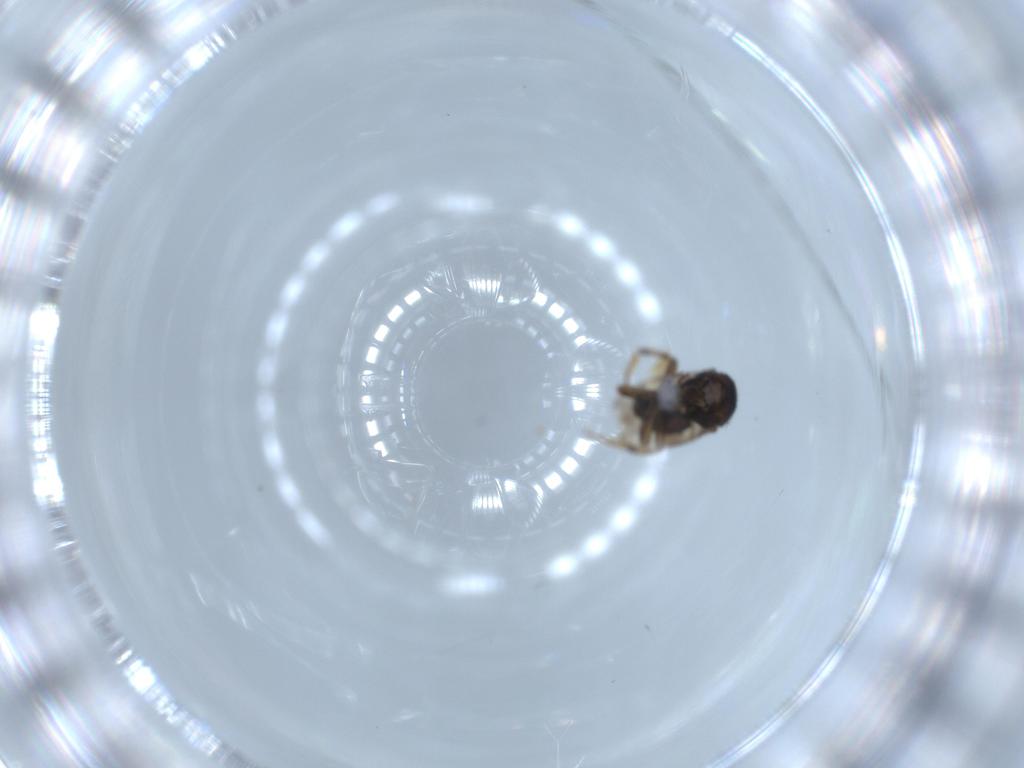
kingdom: Animalia
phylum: Arthropoda
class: Insecta
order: Diptera
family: Sphaeroceridae
